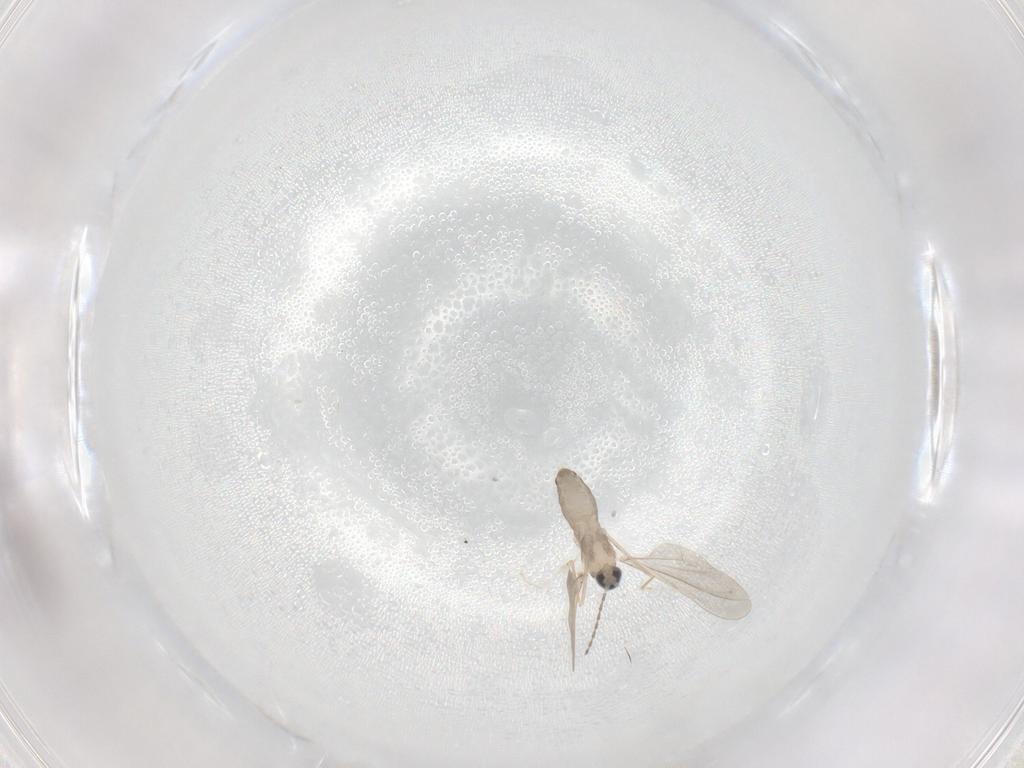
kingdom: Animalia
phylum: Arthropoda
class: Insecta
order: Diptera
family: Cecidomyiidae
